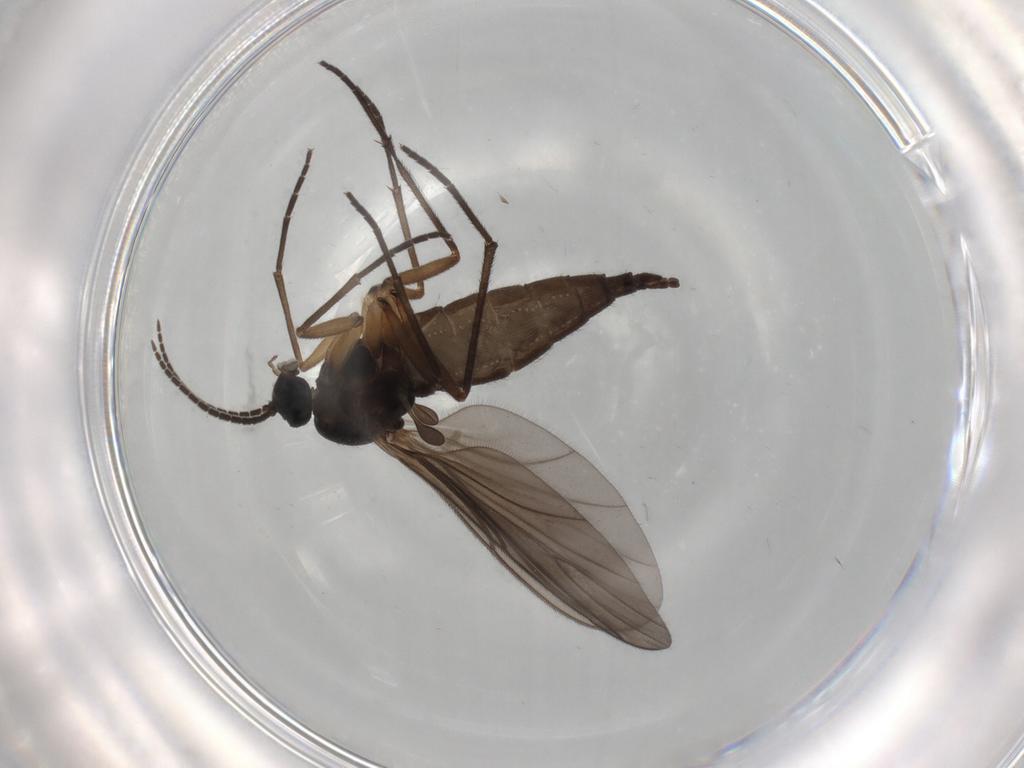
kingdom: Animalia
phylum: Arthropoda
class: Insecta
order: Diptera
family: Sciaridae
